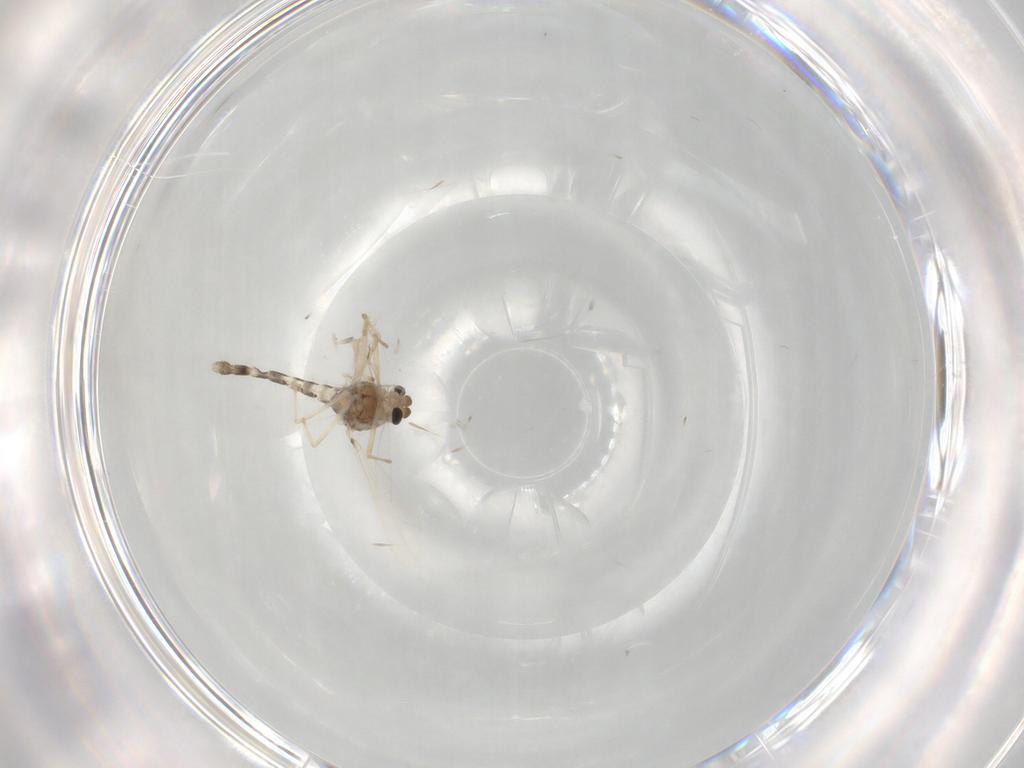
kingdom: Animalia
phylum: Arthropoda
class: Insecta
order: Diptera
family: Chironomidae
